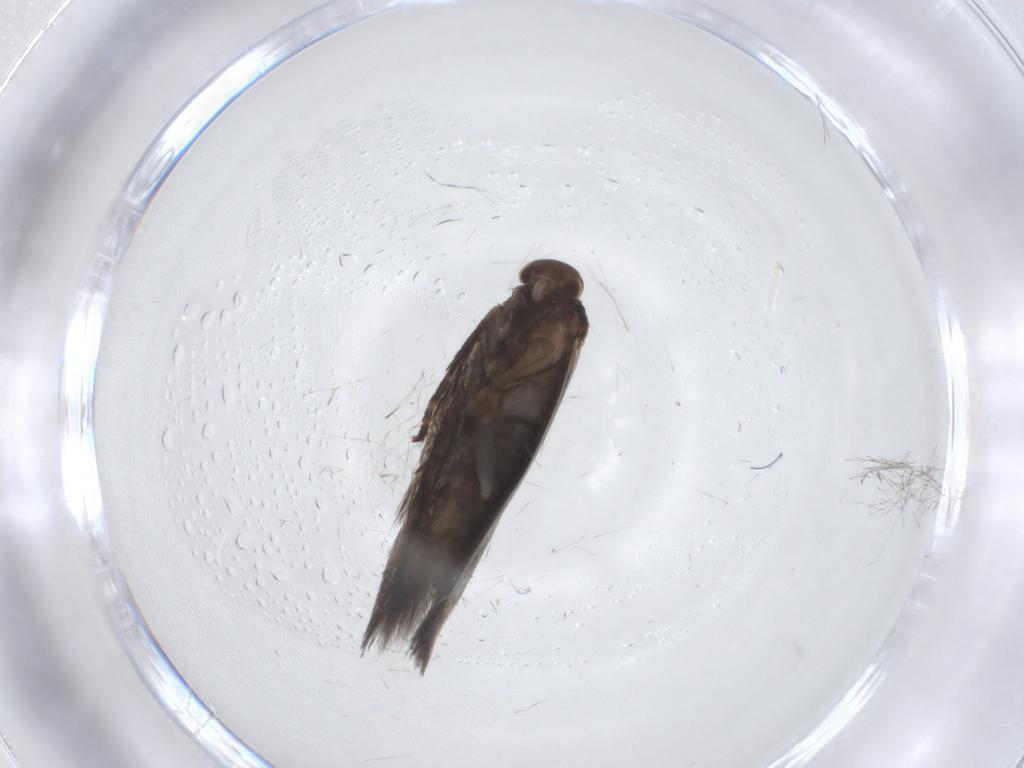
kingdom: Animalia
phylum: Arthropoda
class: Insecta
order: Lepidoptera
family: Elachistidae
